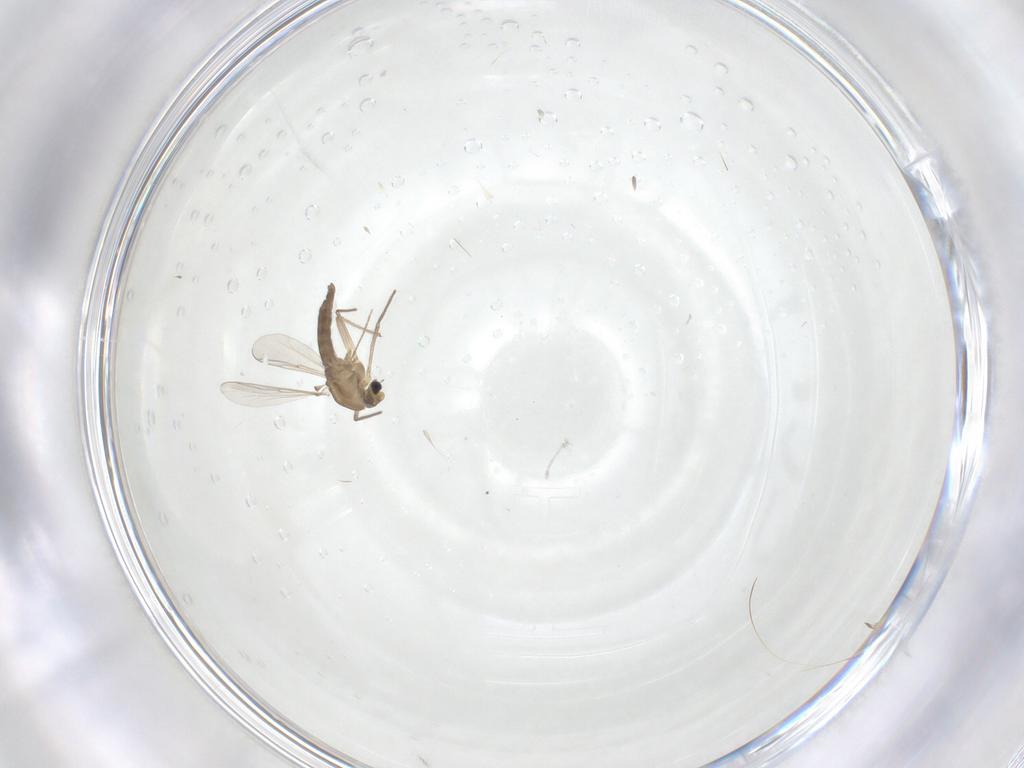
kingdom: Animalia
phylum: Arthropoda
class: Insecta
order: Diptera
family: Chironomidae
